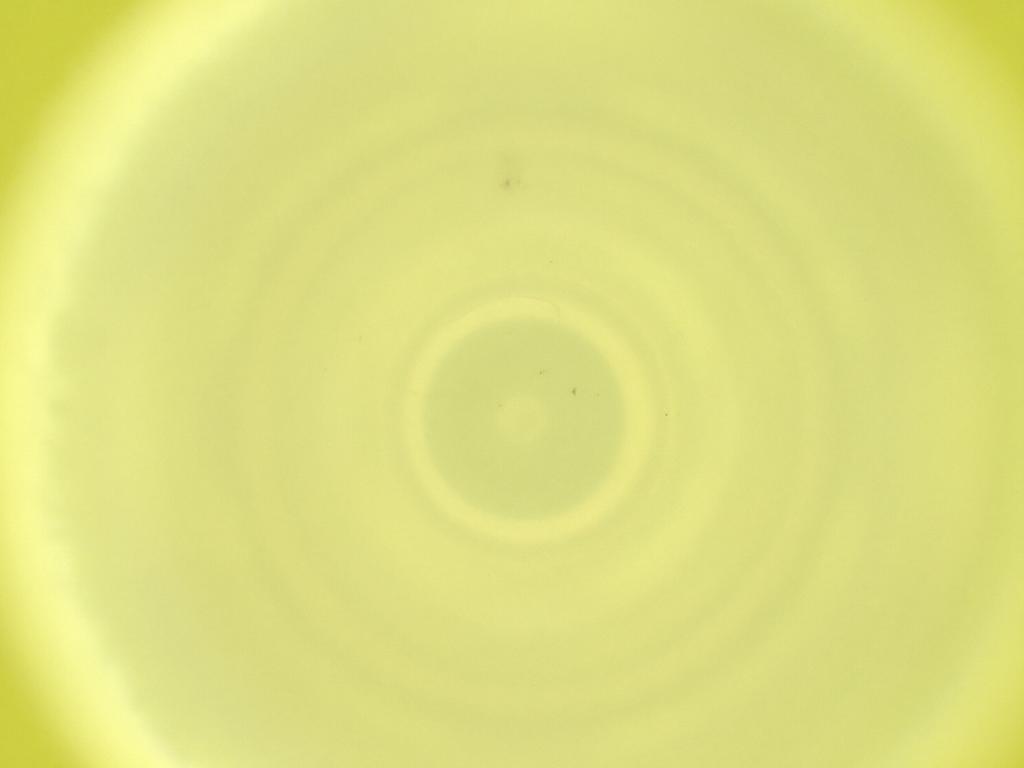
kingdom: Animalia
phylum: Arthropoda
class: Insecta
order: Diptera
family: Cecidomyiidae
